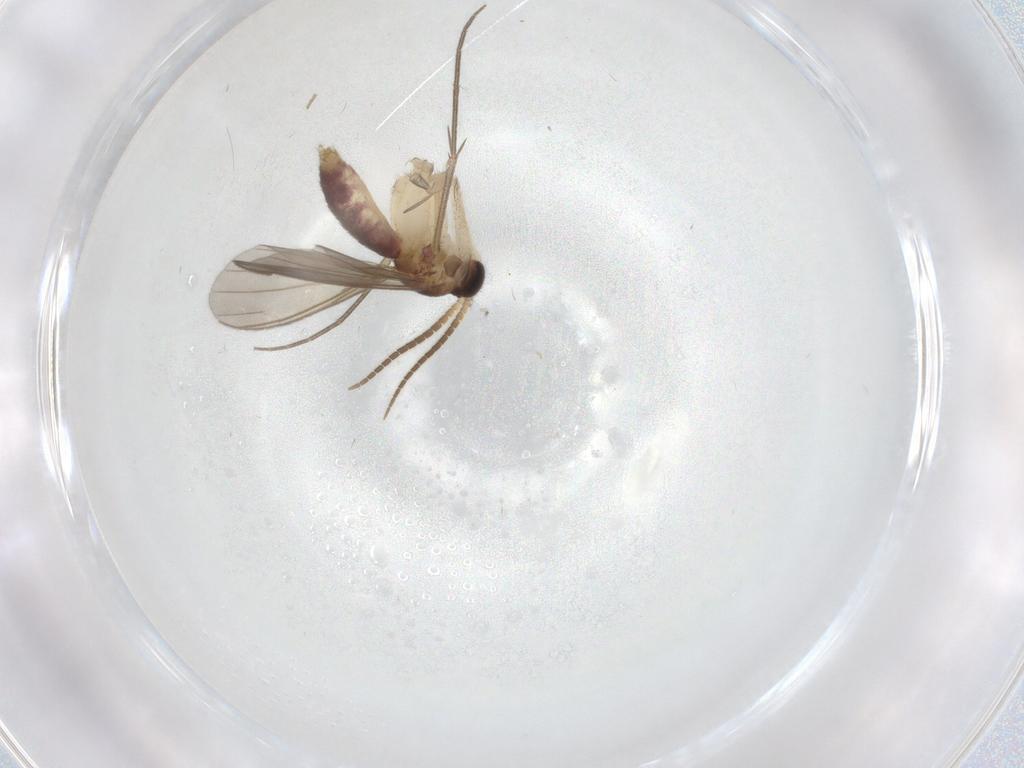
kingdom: Animalia
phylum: Arthropoda
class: Insecta
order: Diptera
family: Mycetophilidae
